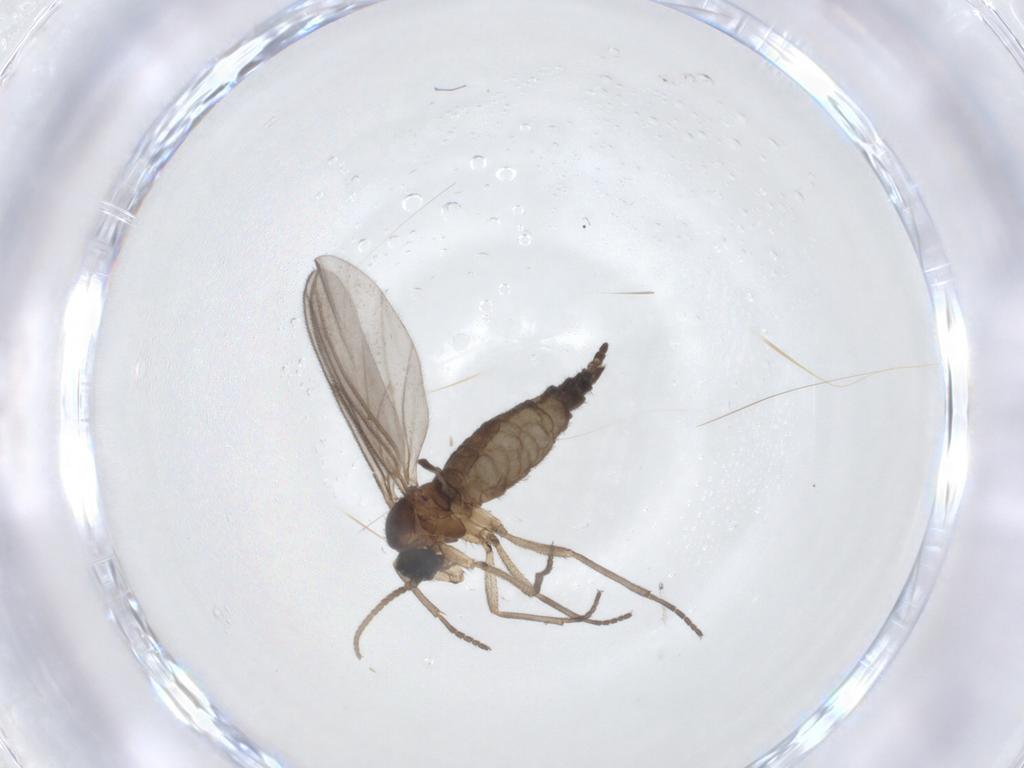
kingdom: Animalia
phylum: Arthropoda
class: Insecta
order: Diptera
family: Sciaridae
